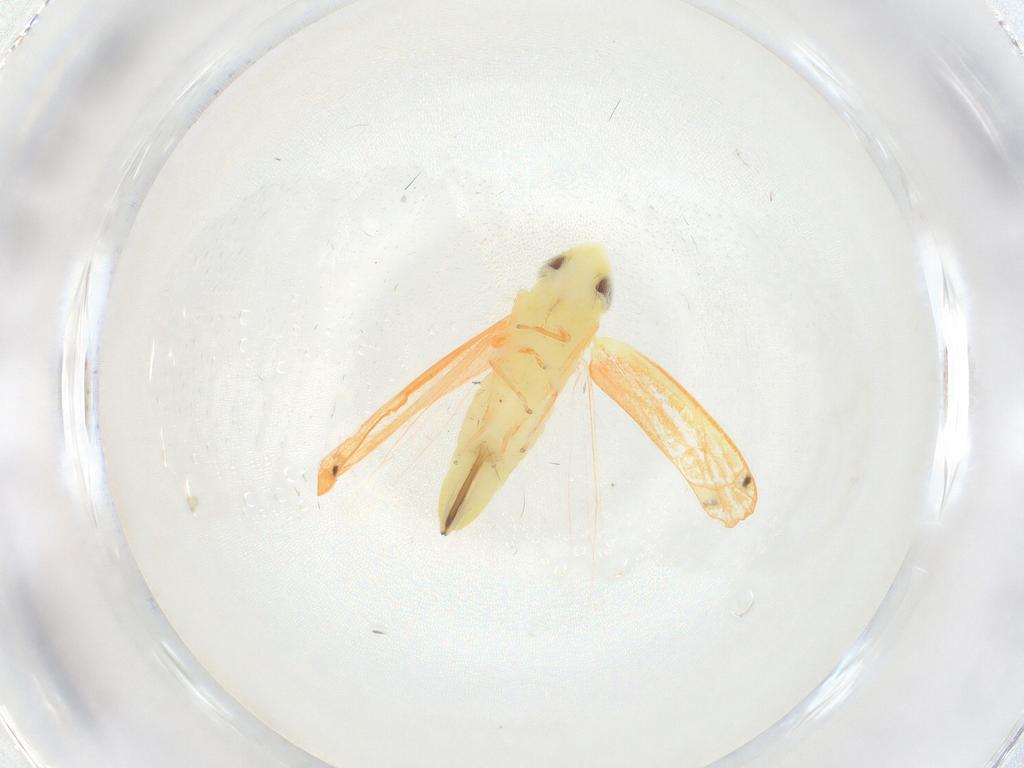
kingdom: Animalia
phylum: Arthropoda
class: Insecta
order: Hemiptera
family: Cicadellidae
